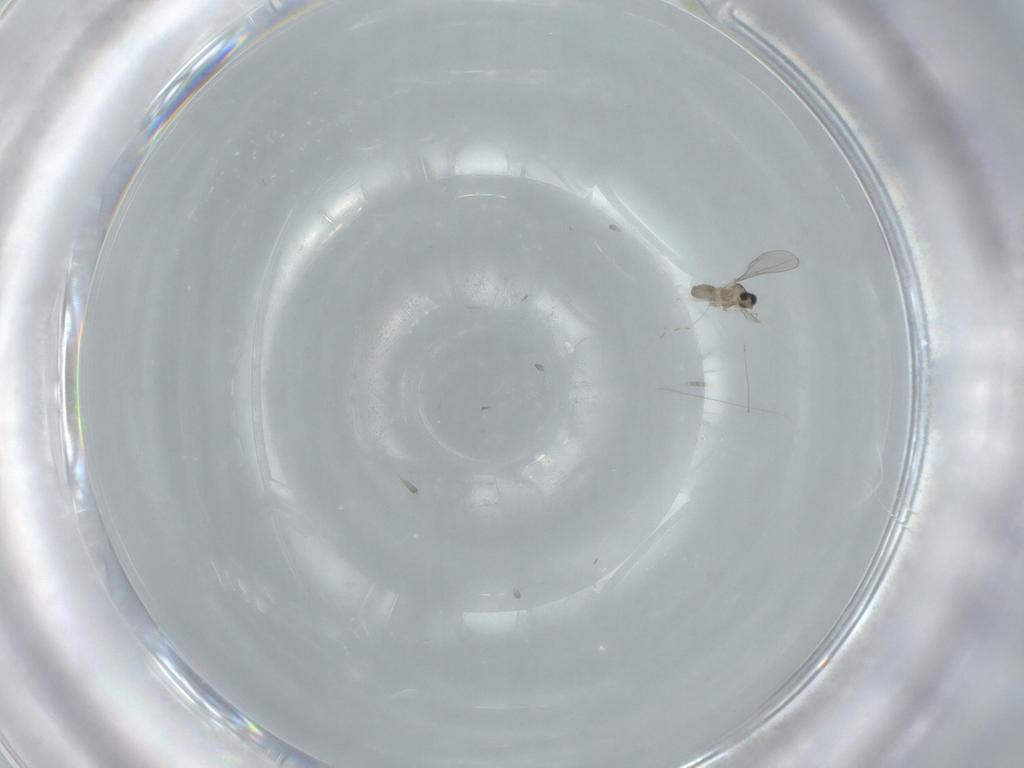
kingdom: Animalia
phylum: Arthropoda
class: Insecta
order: Diptera
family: Cecidomyiidae
